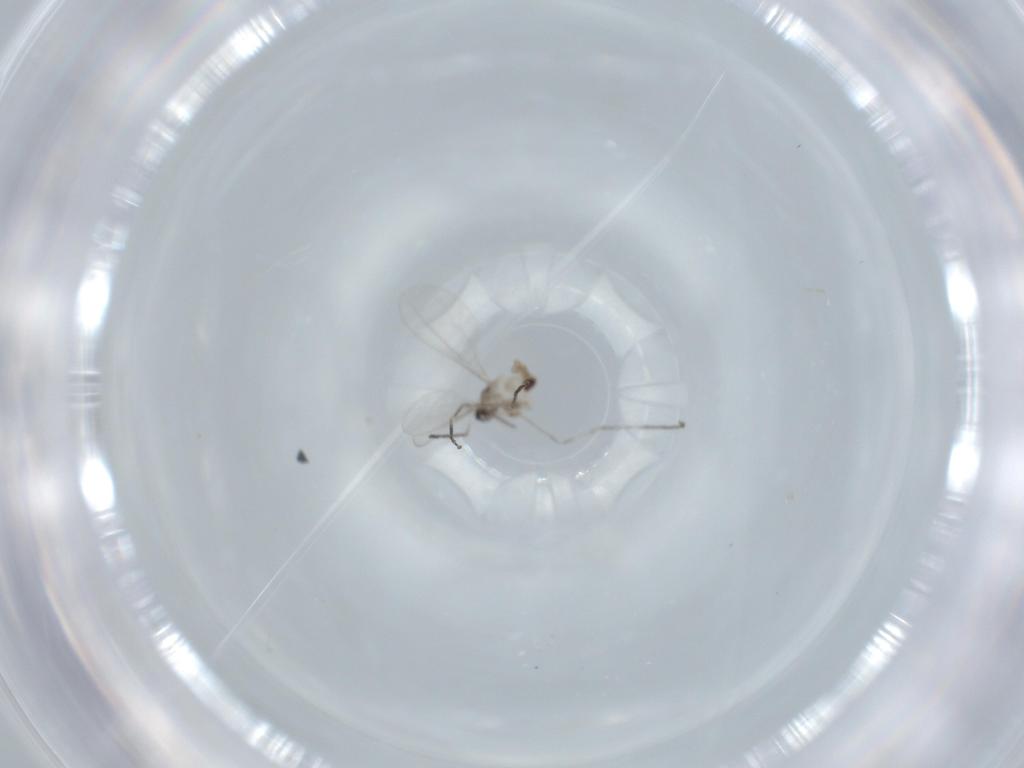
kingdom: Animalia
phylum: Arthropoda
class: Insecta
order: Diptera
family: Cecidomyiidae
